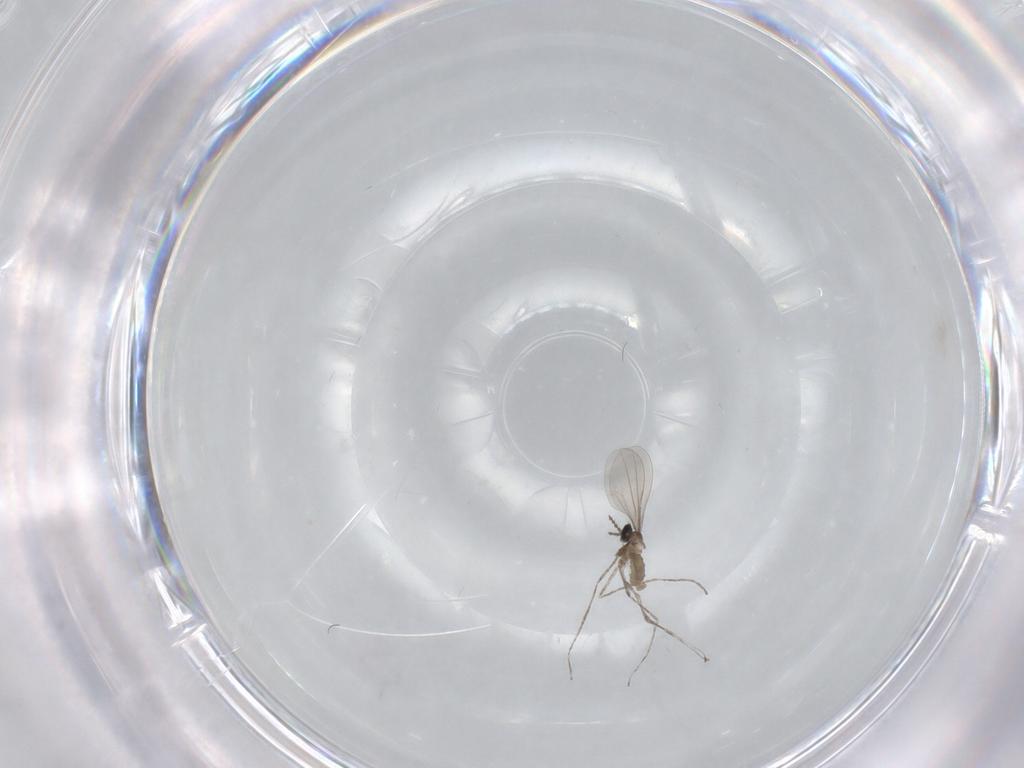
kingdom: Animalia
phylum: Arthropoda
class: Insecta
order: Diptera
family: Cecidomyiidae
